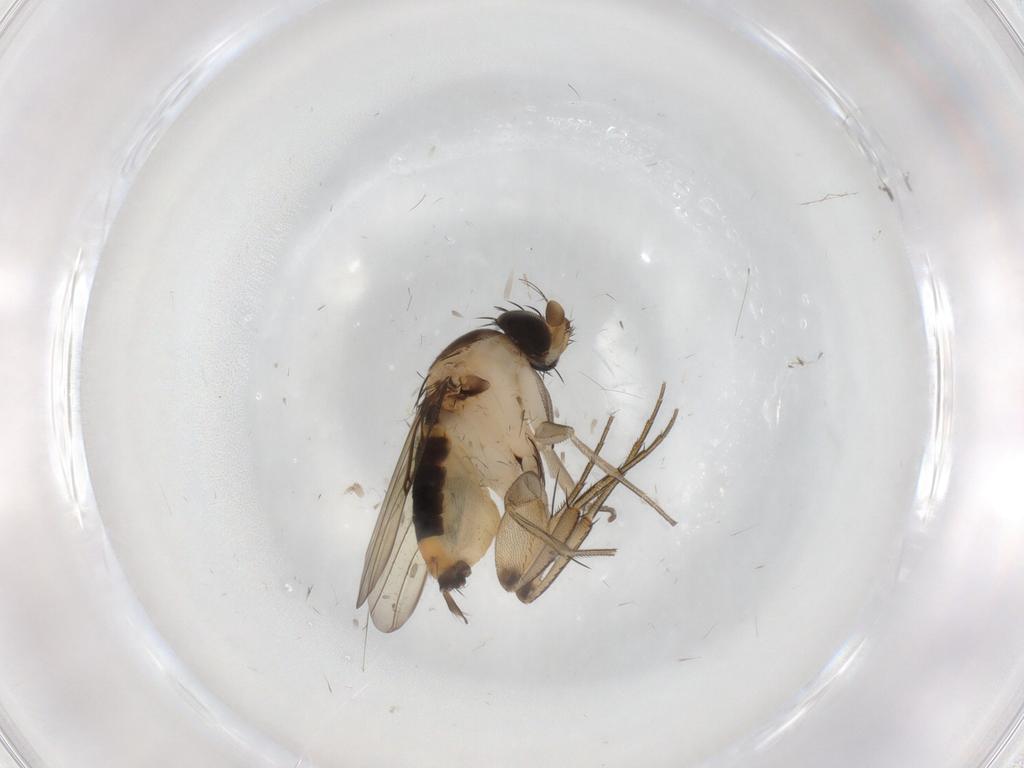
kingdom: Animalia
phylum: Arthropoda
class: Insecta
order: Diptera
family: Phoridae
